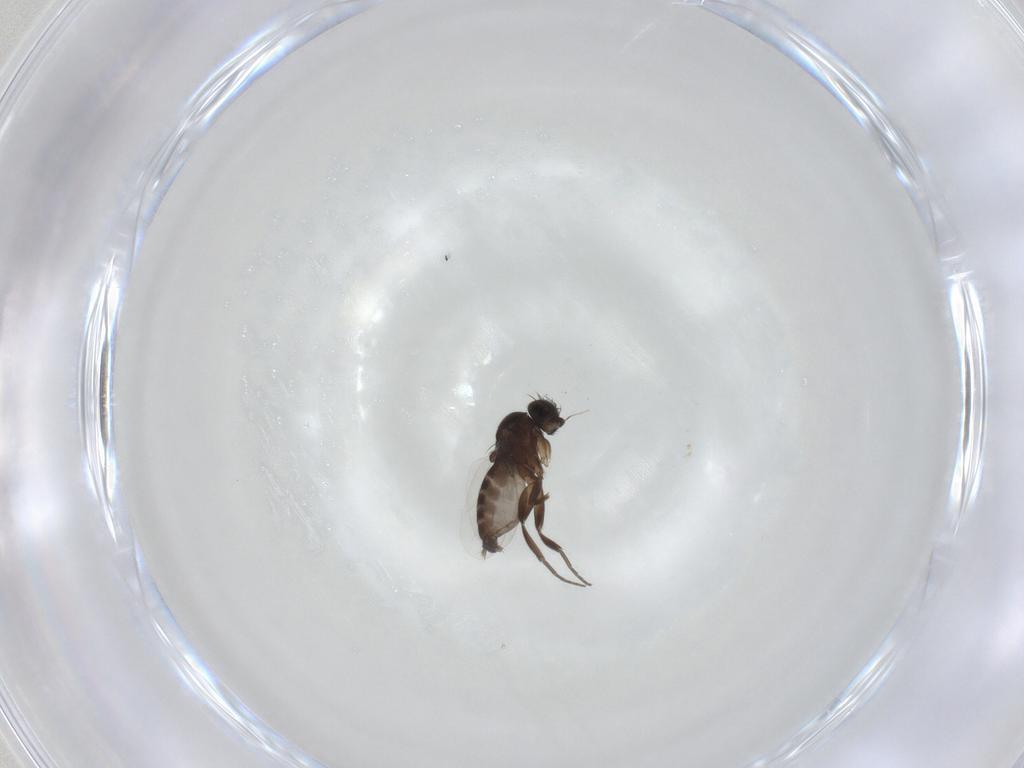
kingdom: Animalia
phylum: Arthropoda
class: Insecta
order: Diptera
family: Phoridae
